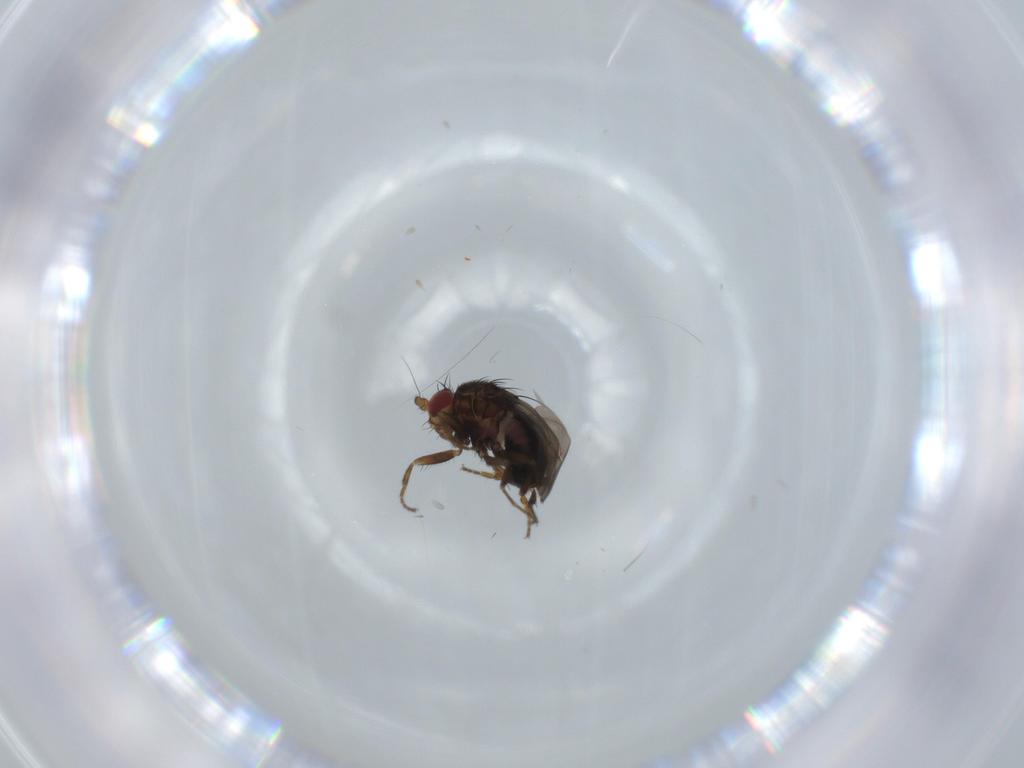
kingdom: Animalia
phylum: Arthropoda
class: Insecta
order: Diptera
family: Sphaeroceridae
